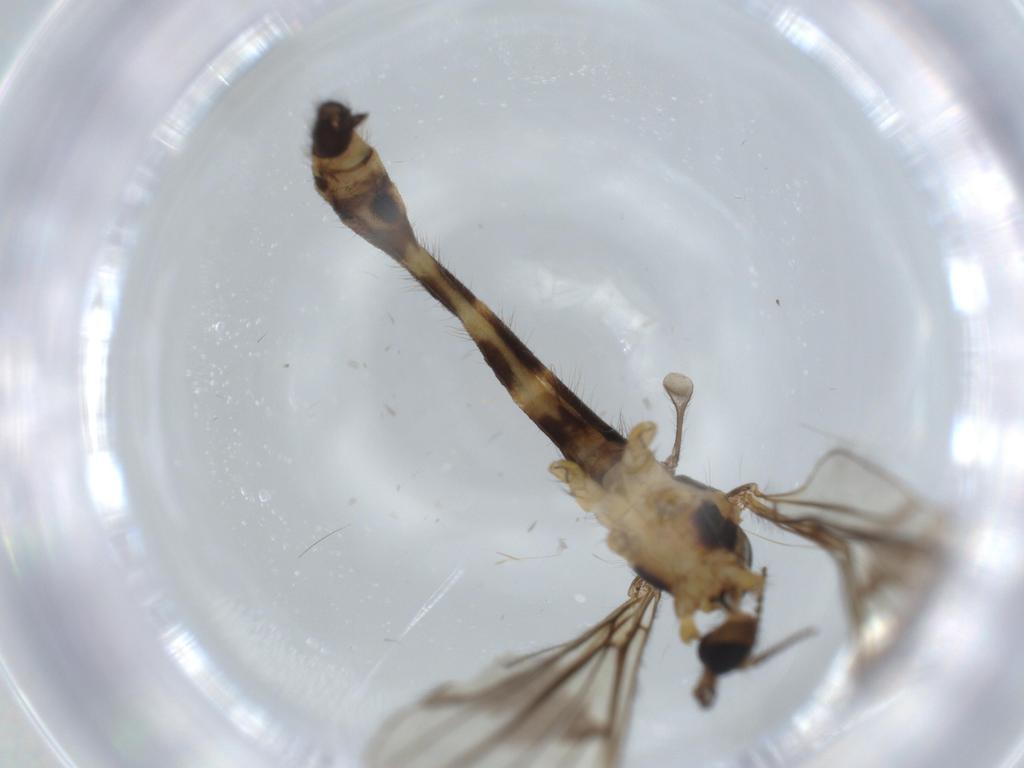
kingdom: Animalia
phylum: Arthropoda
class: Insecta
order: Diptera
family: Limoniidae
